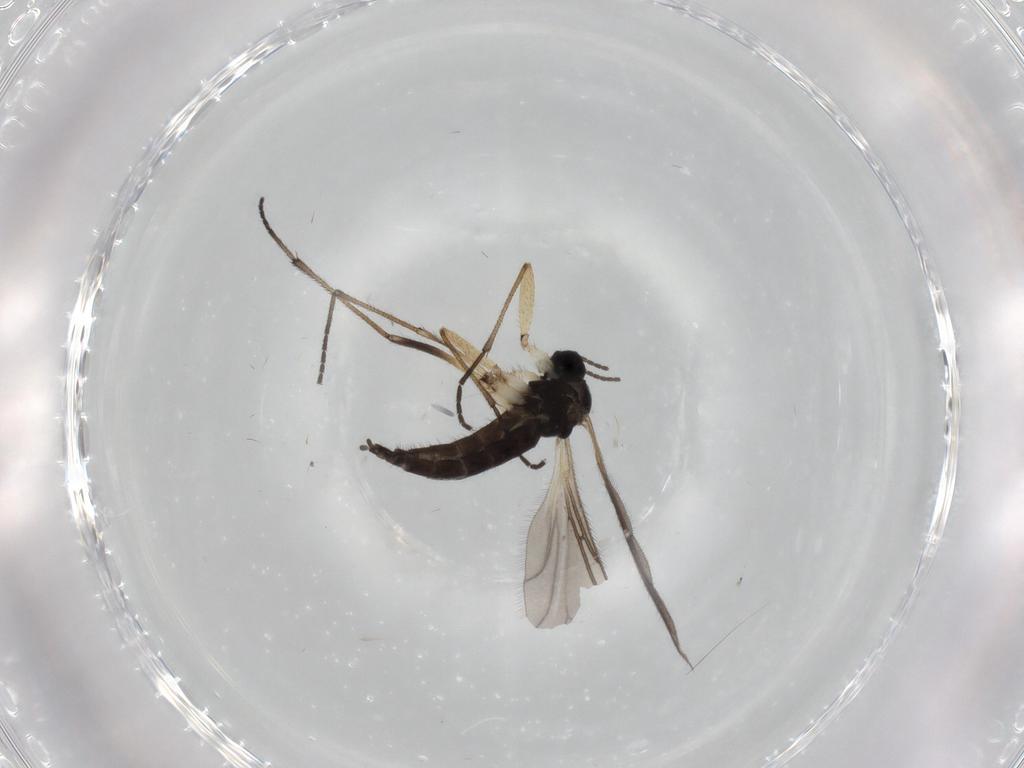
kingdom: Animalia
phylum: Arthropoda
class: Insecta
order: Diptera
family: Sciaridae
